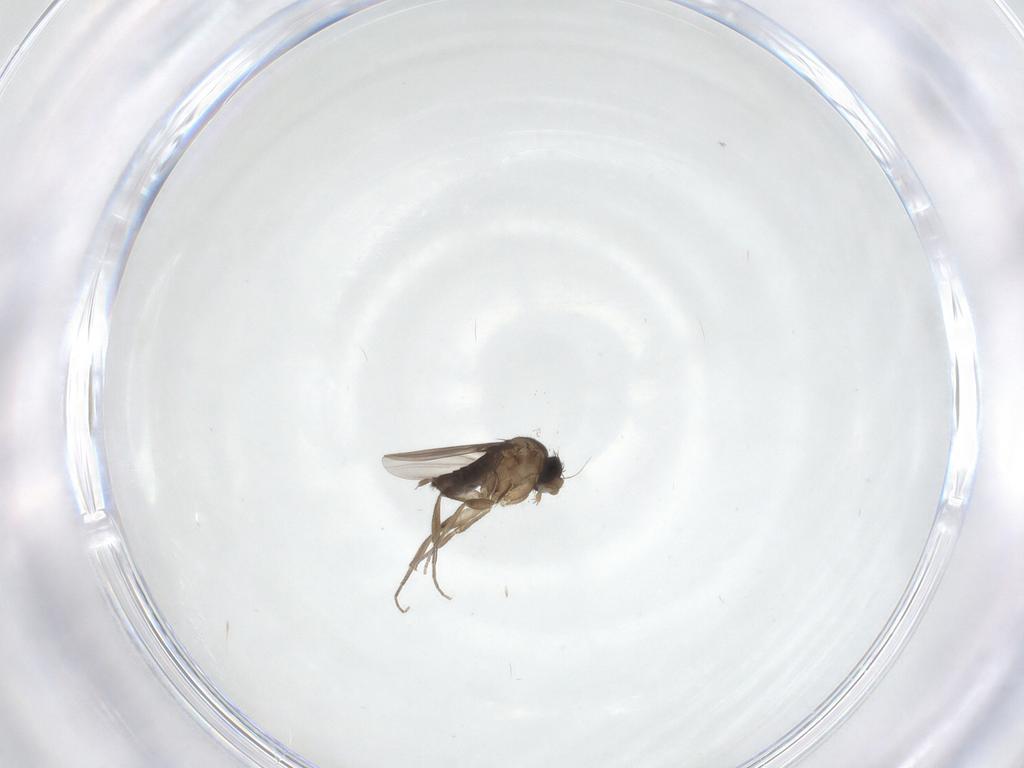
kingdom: Animalia
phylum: Arthropoda
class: Insecta
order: Diptera
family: Phoridae
